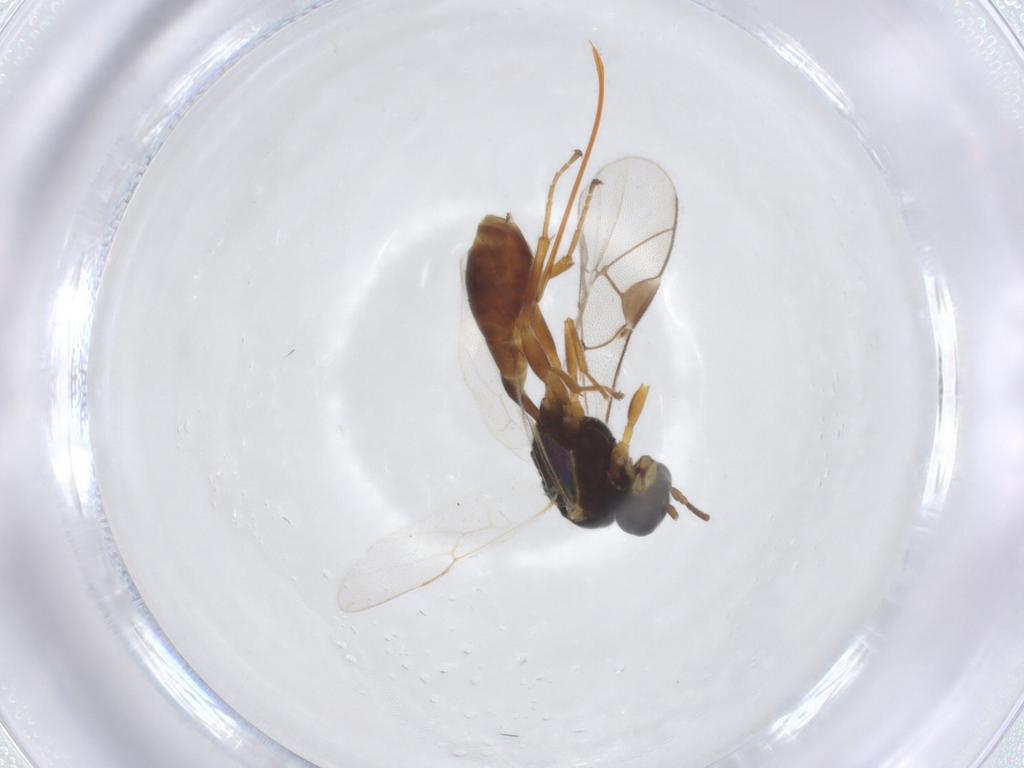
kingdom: Animalia
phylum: Arthropoda
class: Insecta
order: Hymenoptera
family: Ichneumonidae
